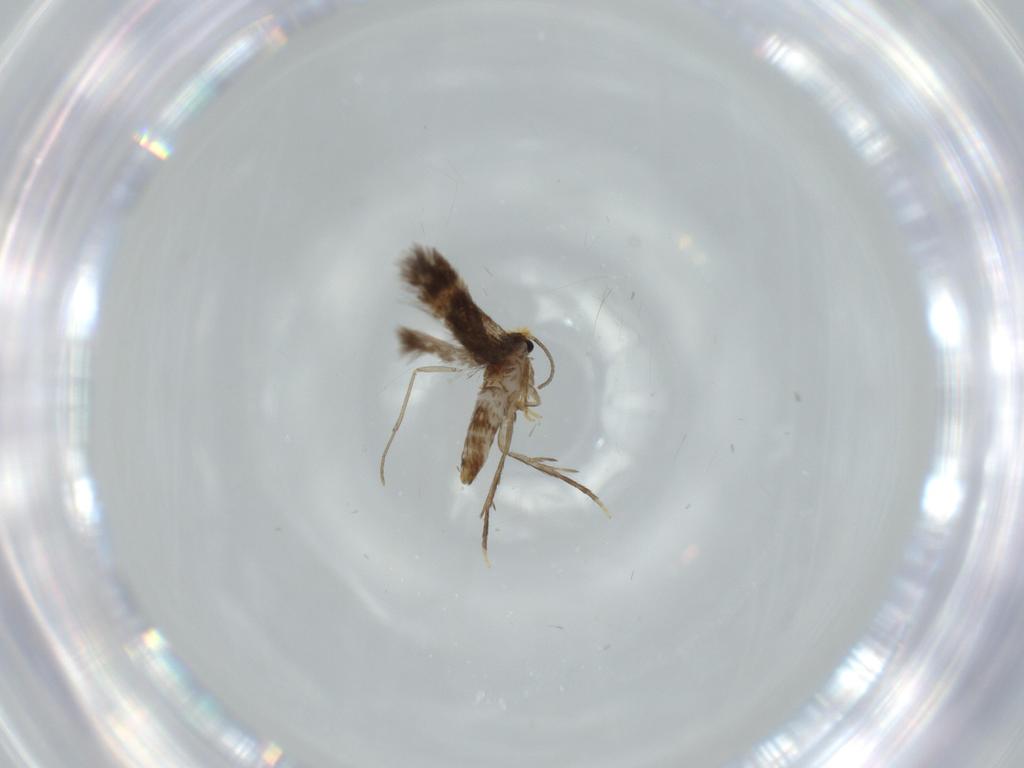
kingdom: Animalia
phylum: Arthropoda
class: Insecta
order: Lepidoptera
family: Nepticulidae
